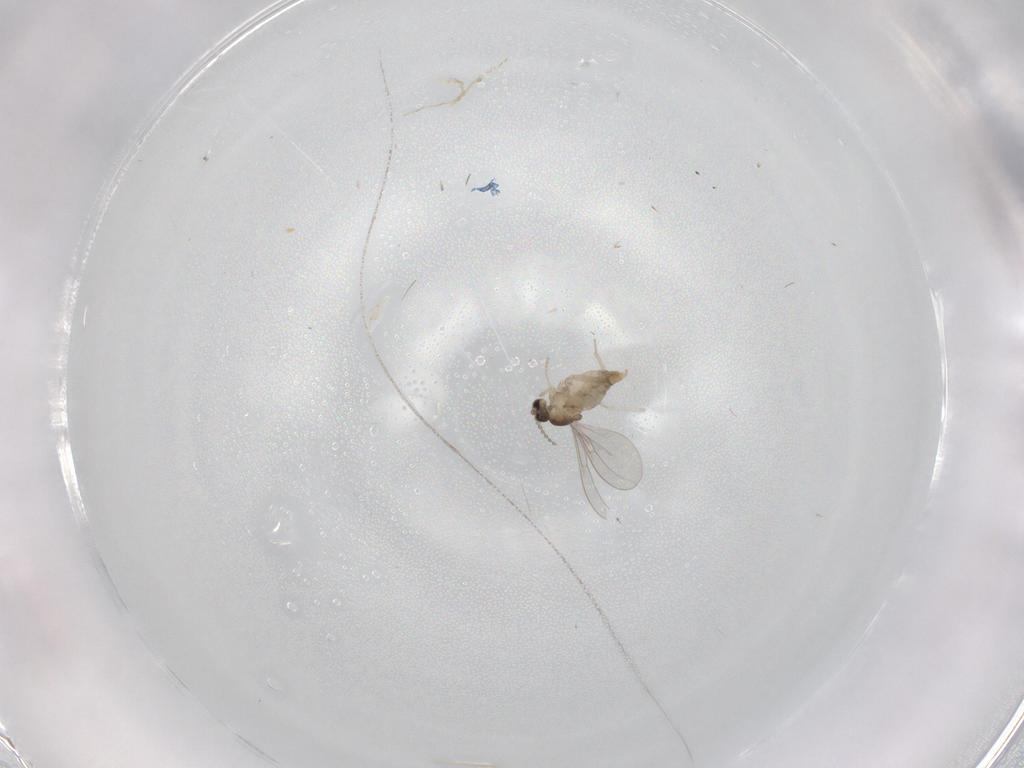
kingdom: Animalia
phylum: Arthropoda
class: Insecta
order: Diptera
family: Cecidomyiidae
